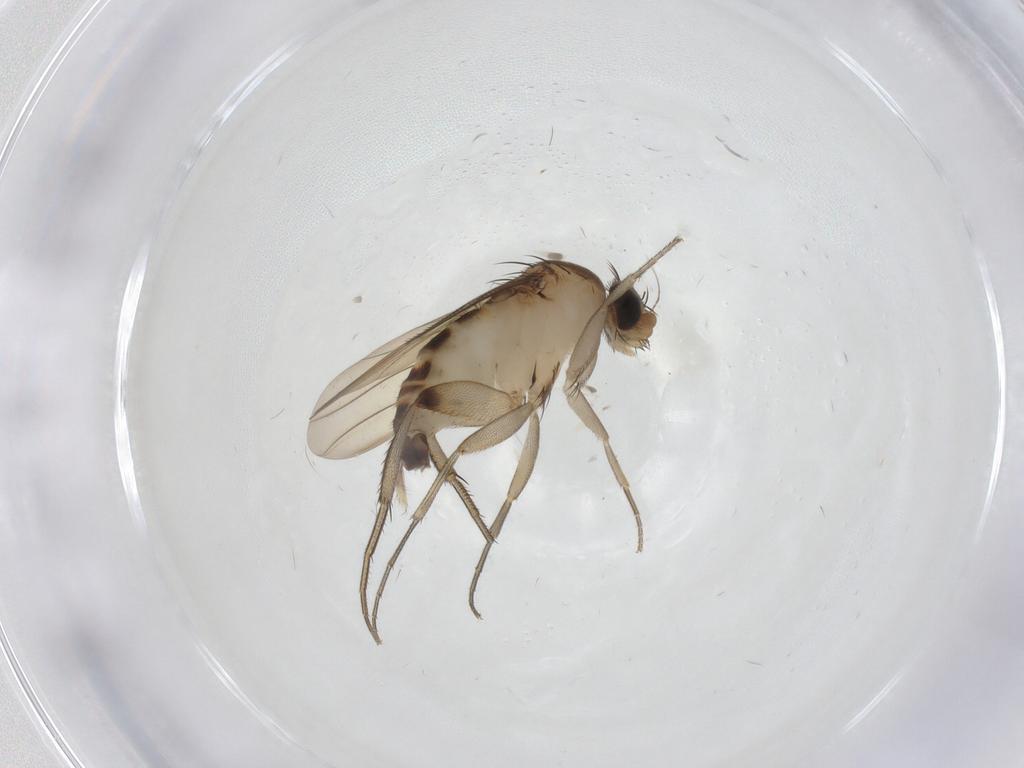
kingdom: Animalia
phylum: Arthropoda
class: Insecta
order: Diptera
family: Phoridae
